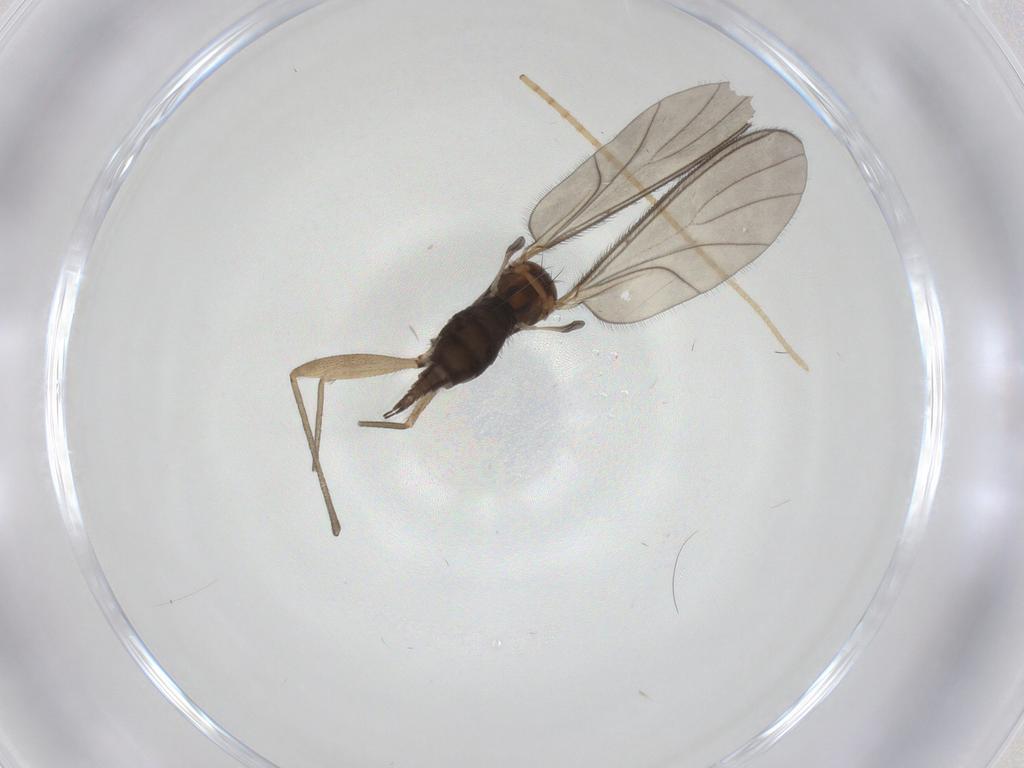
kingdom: Animalia
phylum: Arthropoda
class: Insecta
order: Diptera
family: Sciaridae
